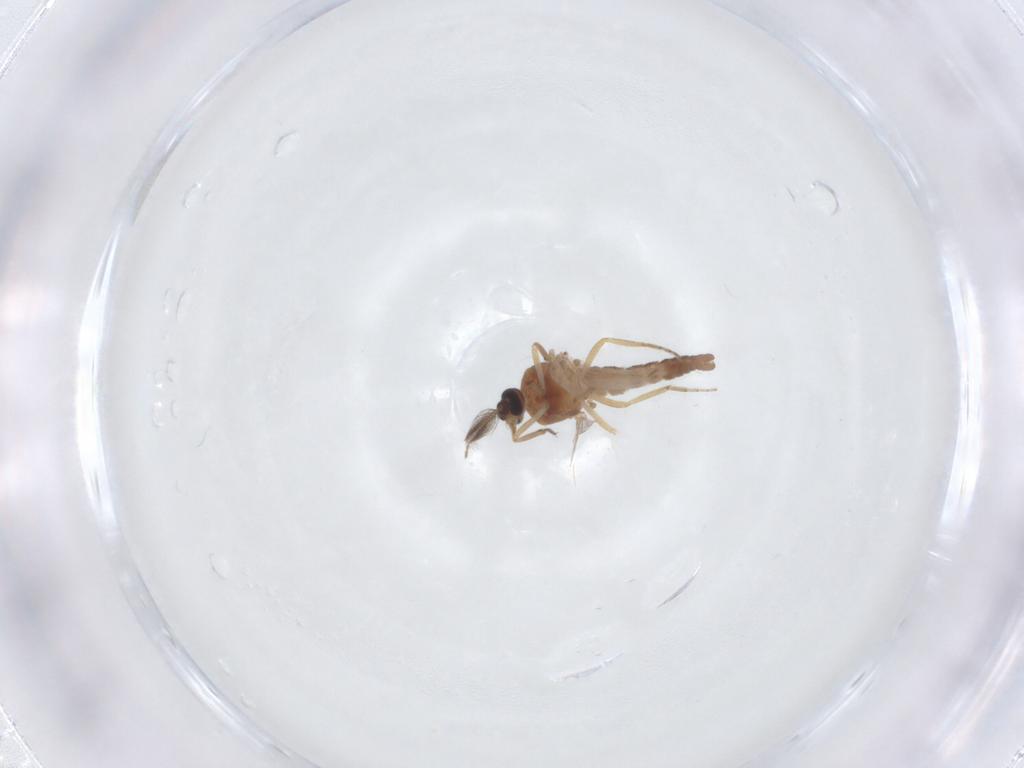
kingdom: Animalia
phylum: Arthropoda
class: Insecta
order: Diptera
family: Ceratopogonidae
